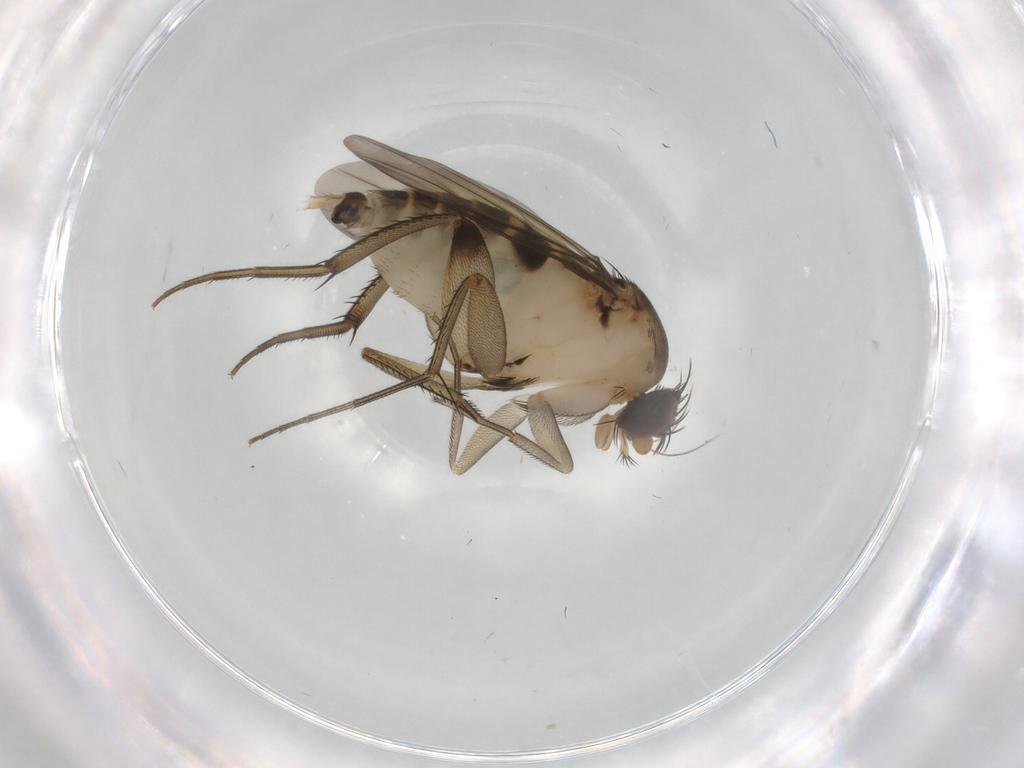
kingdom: Animalia
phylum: Arthropoda
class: Insecta
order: Diptera
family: Phoridae
